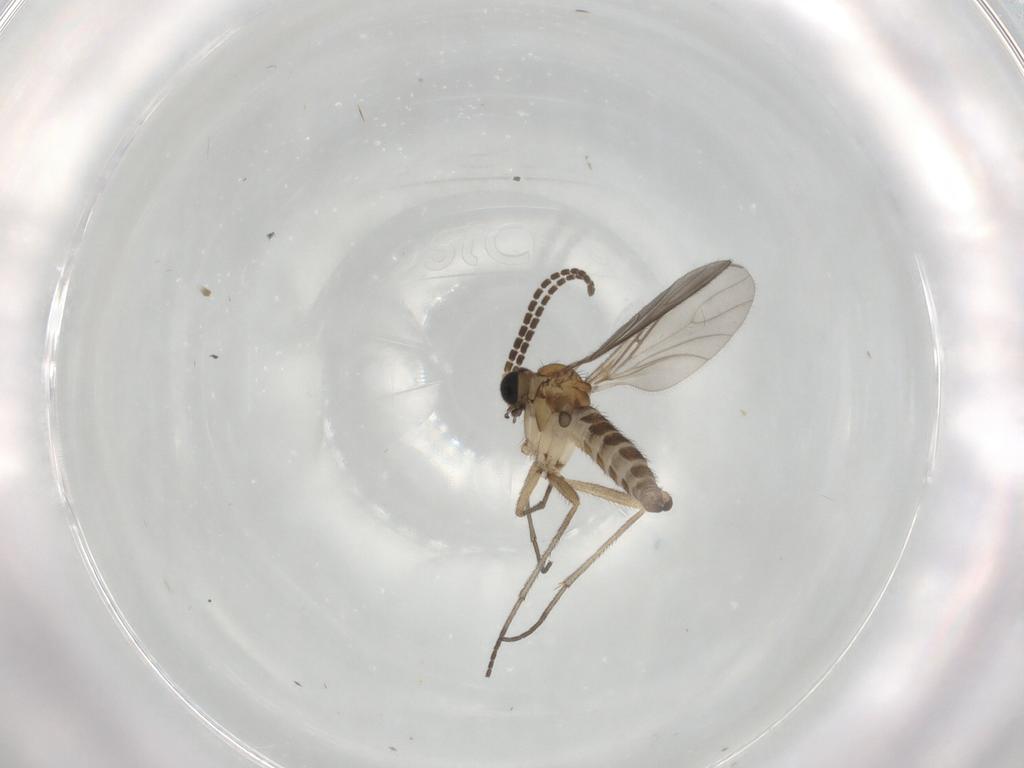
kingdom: Animalia
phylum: Arthropoda
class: Insecta
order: Diptera
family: Sciaridae
